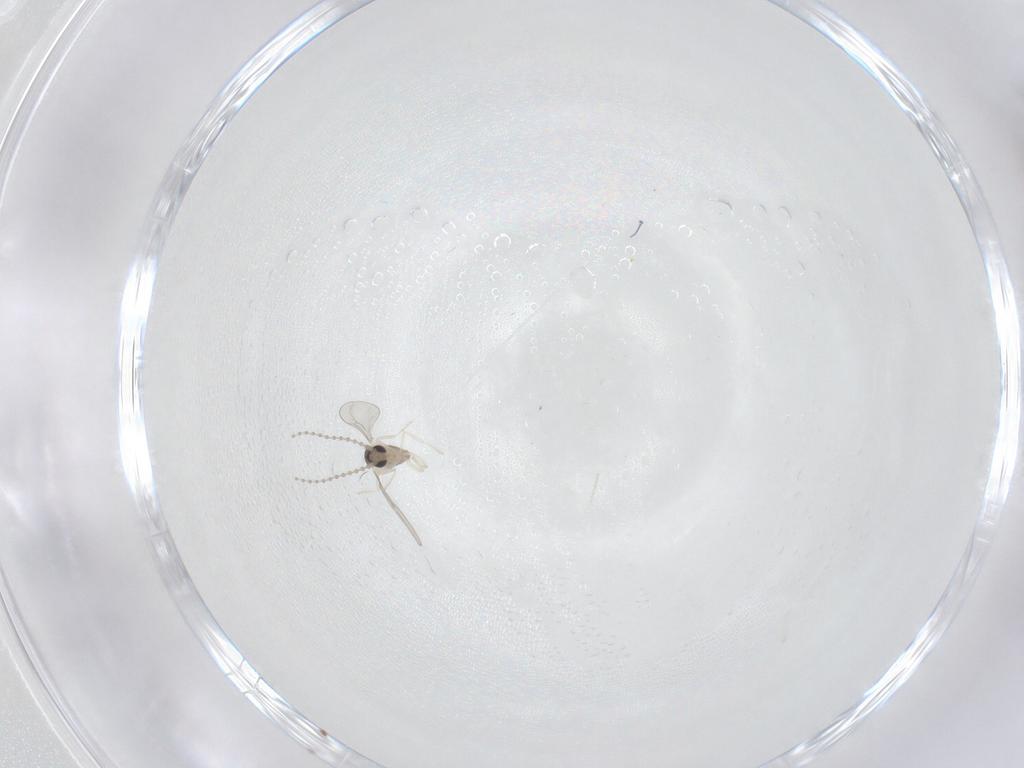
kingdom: Animalia
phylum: Arthropoda
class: Insecta
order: Diptera
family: Cecidomyiidae
